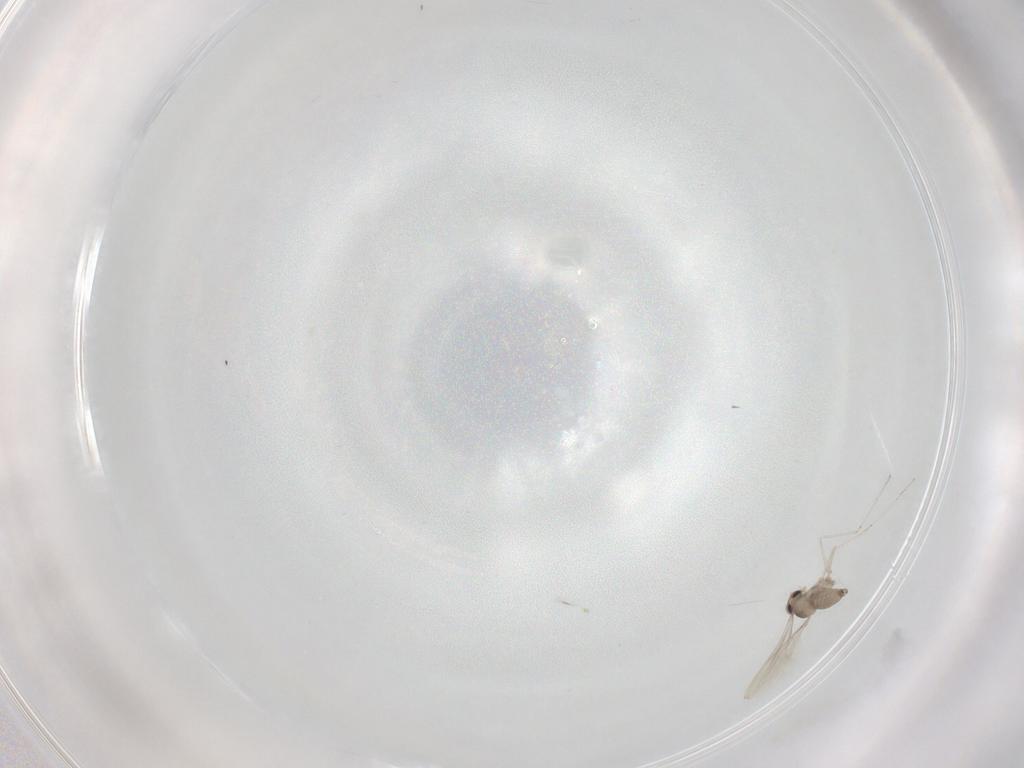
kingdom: Animalia
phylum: Arthropoda
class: Insecta
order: Diptera
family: Cecidomyiidae
